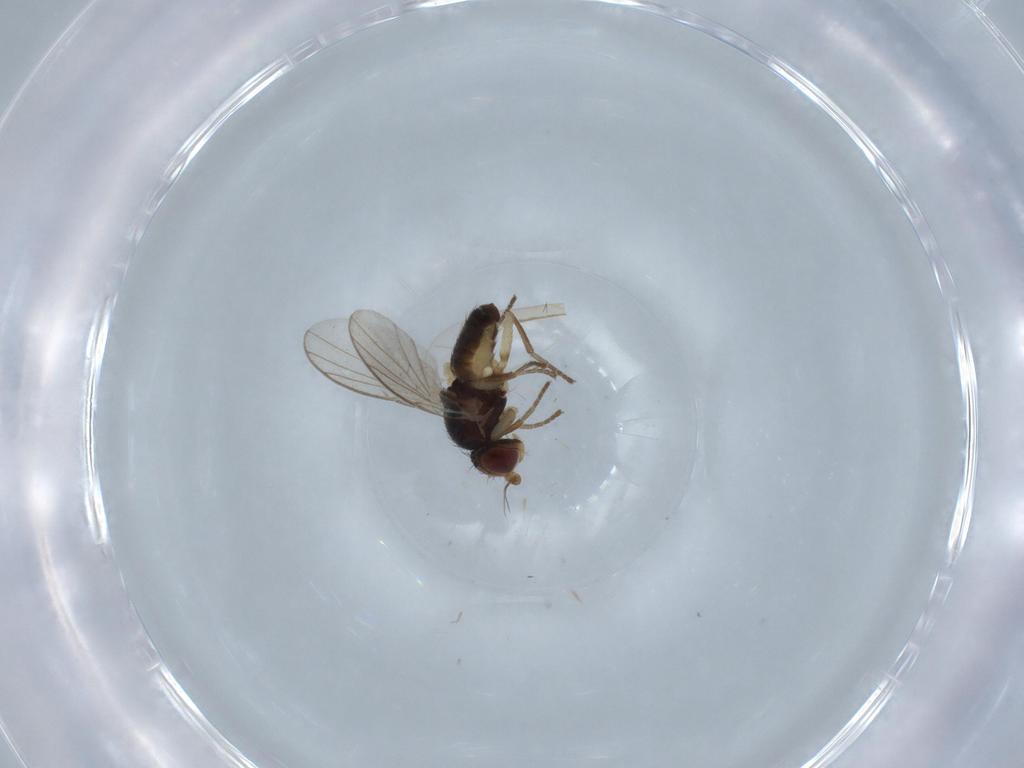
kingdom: Animalia
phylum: Arthropoda
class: Insecta
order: Diptera
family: Agromyzidae
